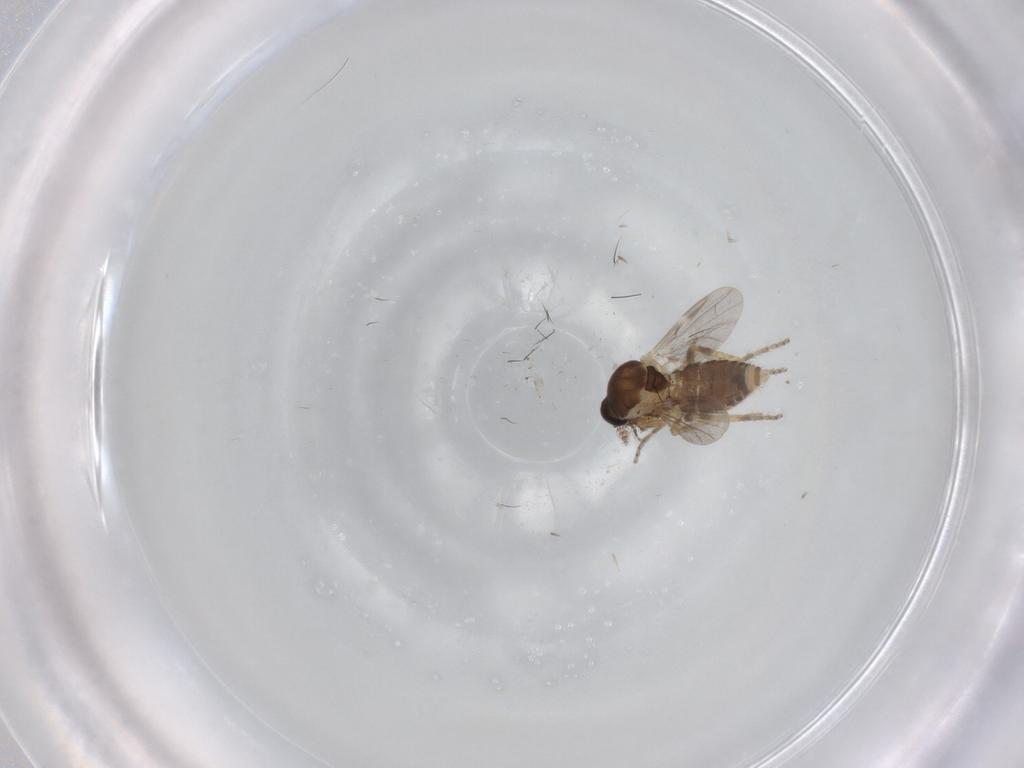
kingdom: Animalia
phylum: Arthropoda
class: Insecta
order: Diptera
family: Ceratopogonidae
